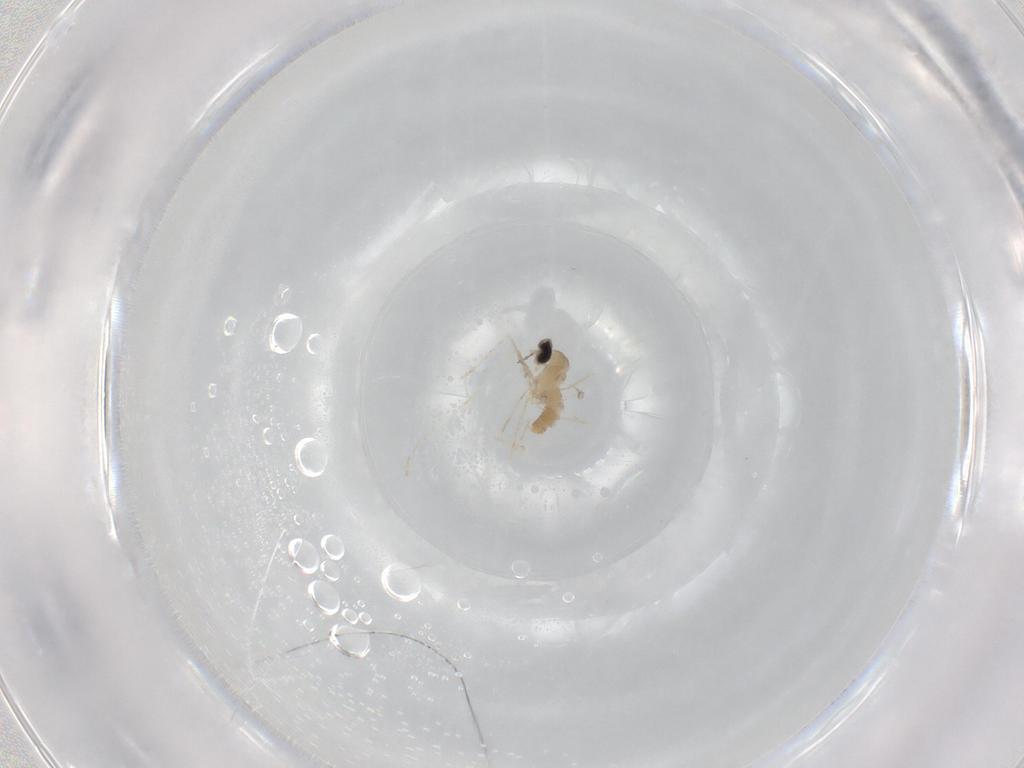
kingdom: Animalia
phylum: Arthropoda
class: Insecta
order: Diptera
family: Cecidomyiidae
